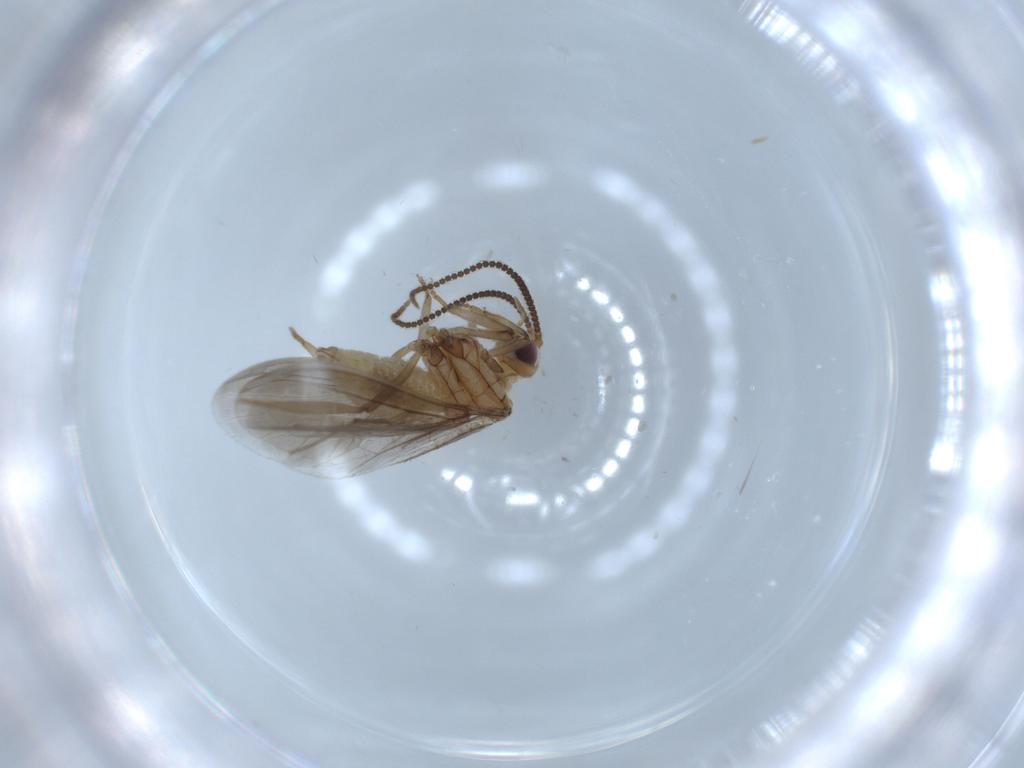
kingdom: Animalia
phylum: Arthropoda
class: Insecta
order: Neuroptera
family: Coniopterygidae
